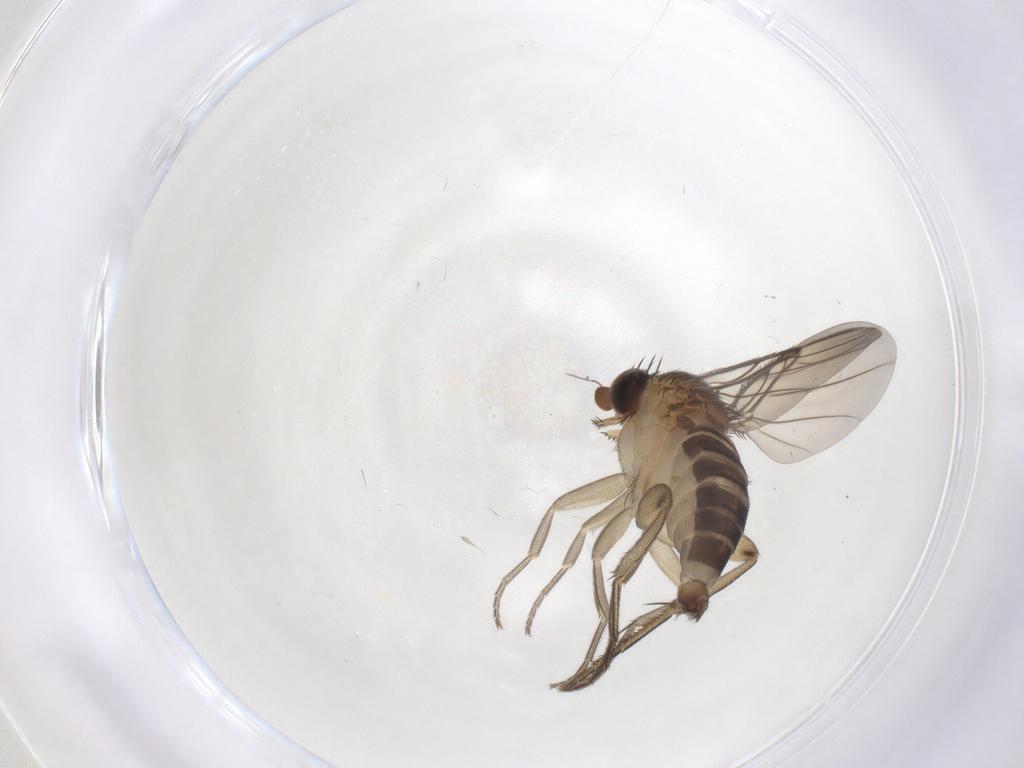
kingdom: Animalia
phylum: Arthropoda
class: Insecta
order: Diptera
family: Phoridae
